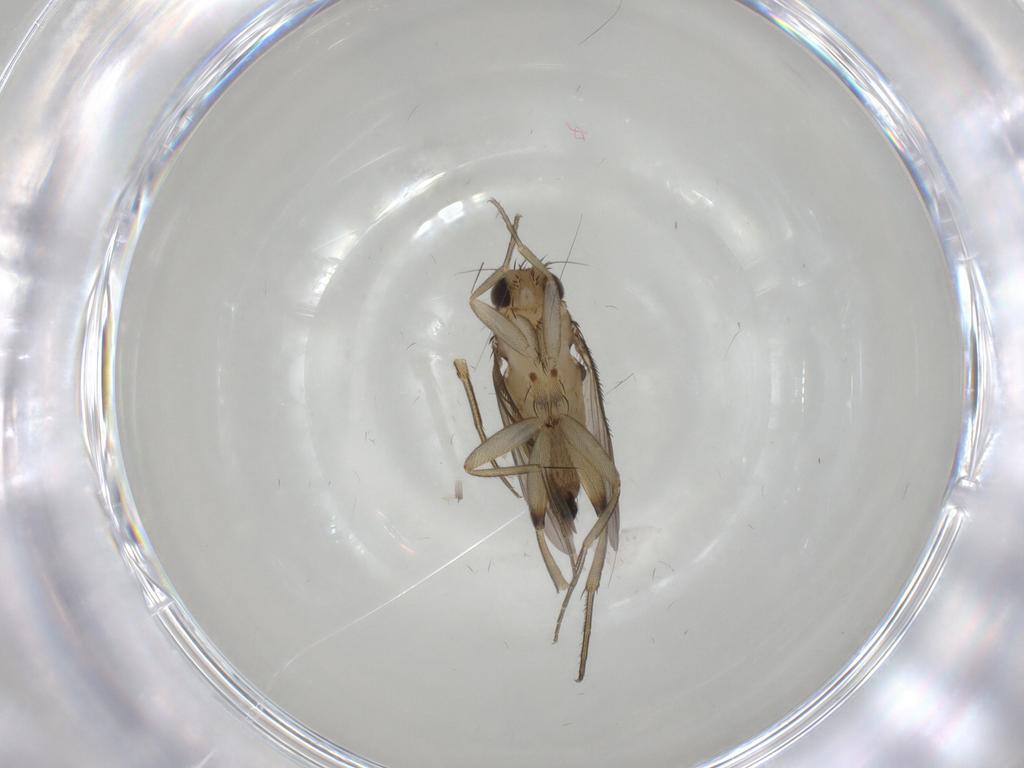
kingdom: Animalia
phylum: Arthropoda
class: Insecta
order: Diptera
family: Phoridae
